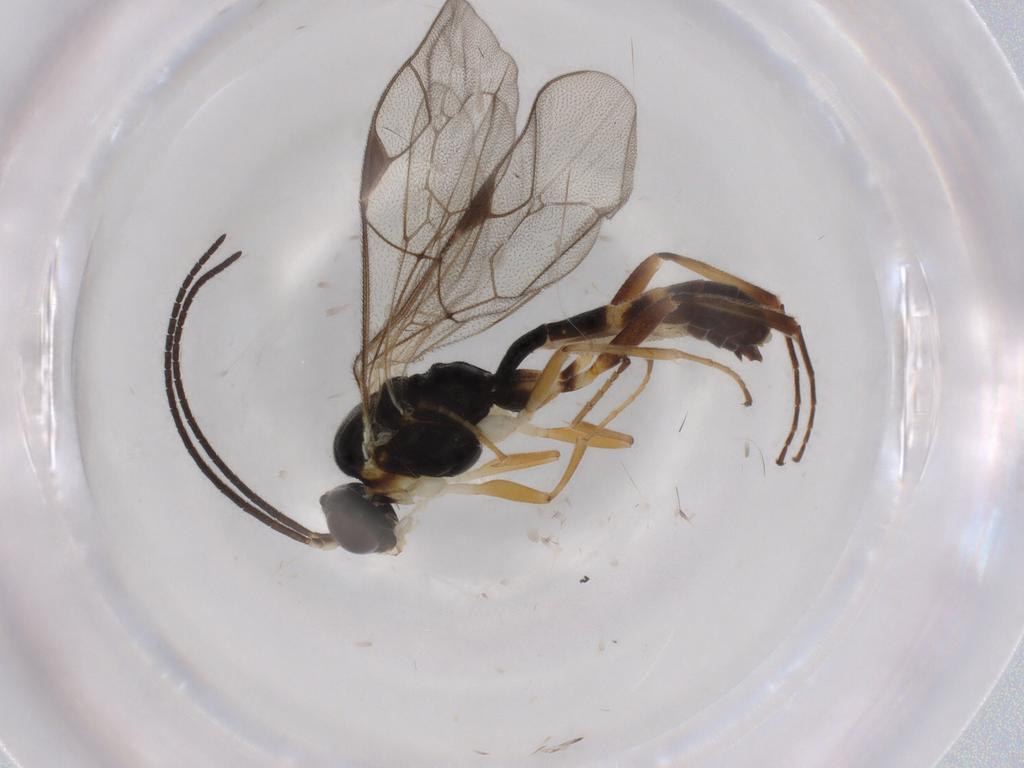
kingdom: Animalia
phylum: Arthropoda
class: Insecta
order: Hymenoptera
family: Ichneumonidae
